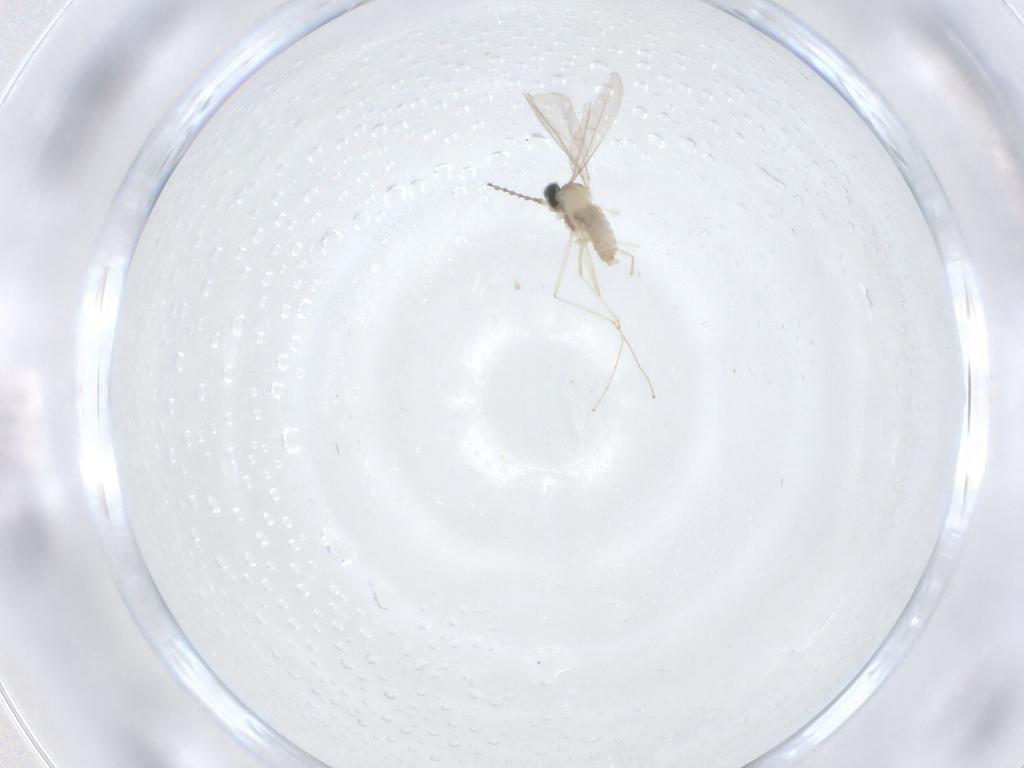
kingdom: Animalia
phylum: Arthropoda
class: Insecta
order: Diptera
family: Cecidomyiidae
